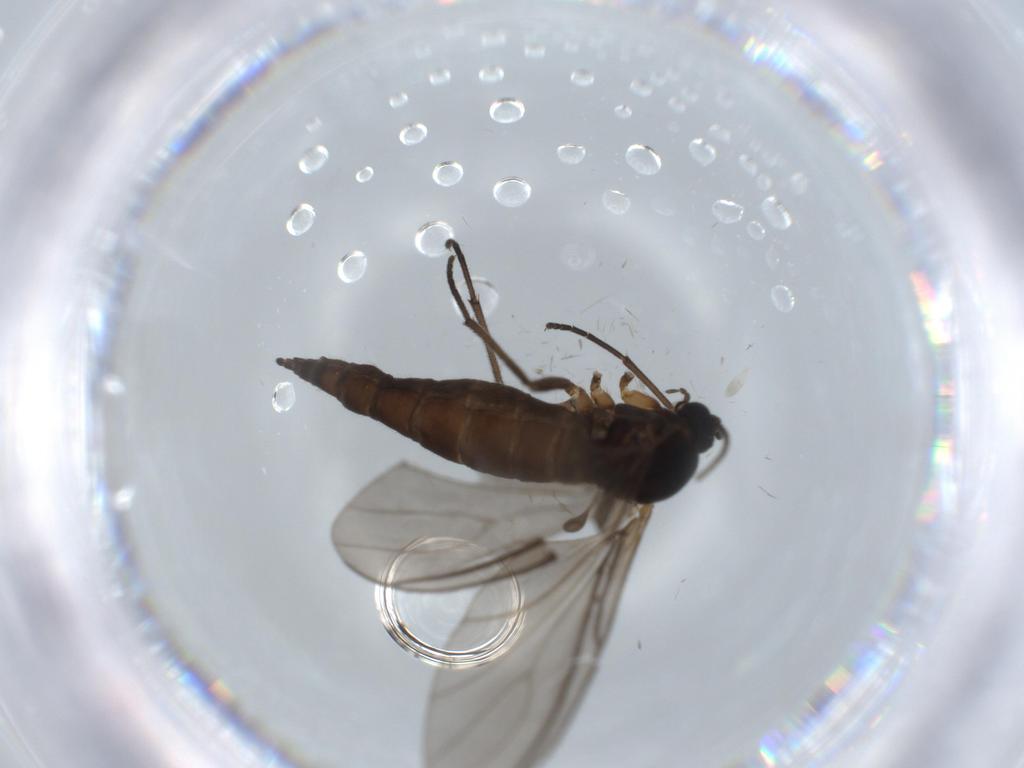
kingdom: Animalia
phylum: Arthropoda
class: Insecta
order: Diptera
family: Sciaridae
